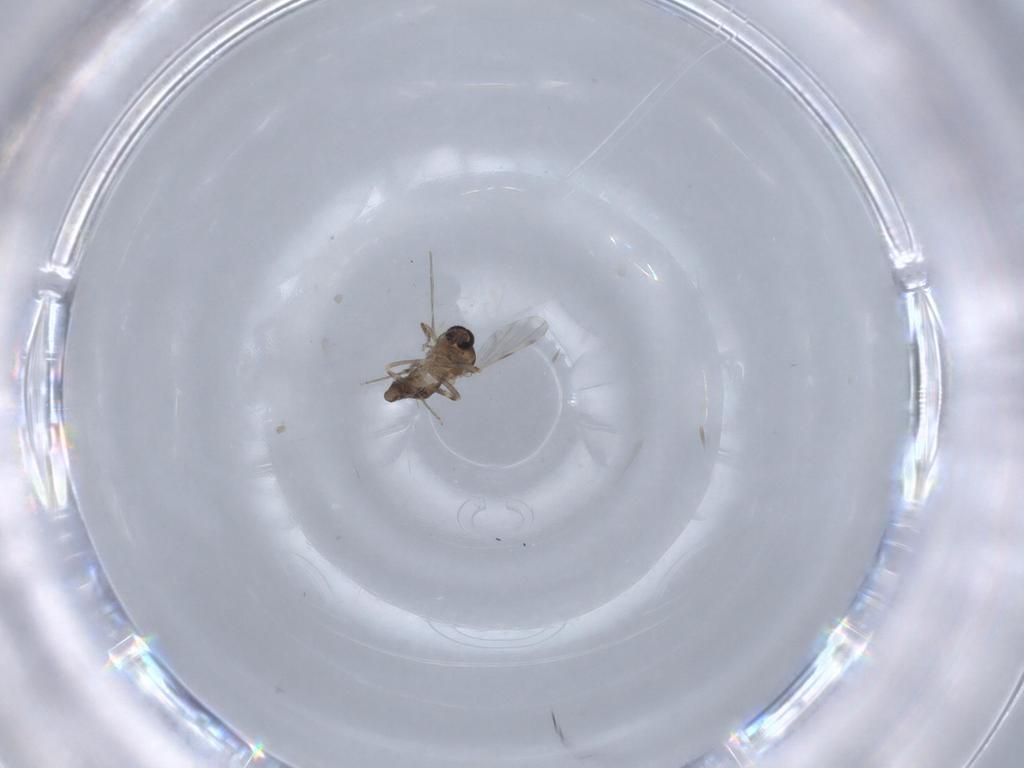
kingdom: Animalia
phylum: Arthropoda
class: Insecta
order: Diptera
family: Ceratopogonidae
